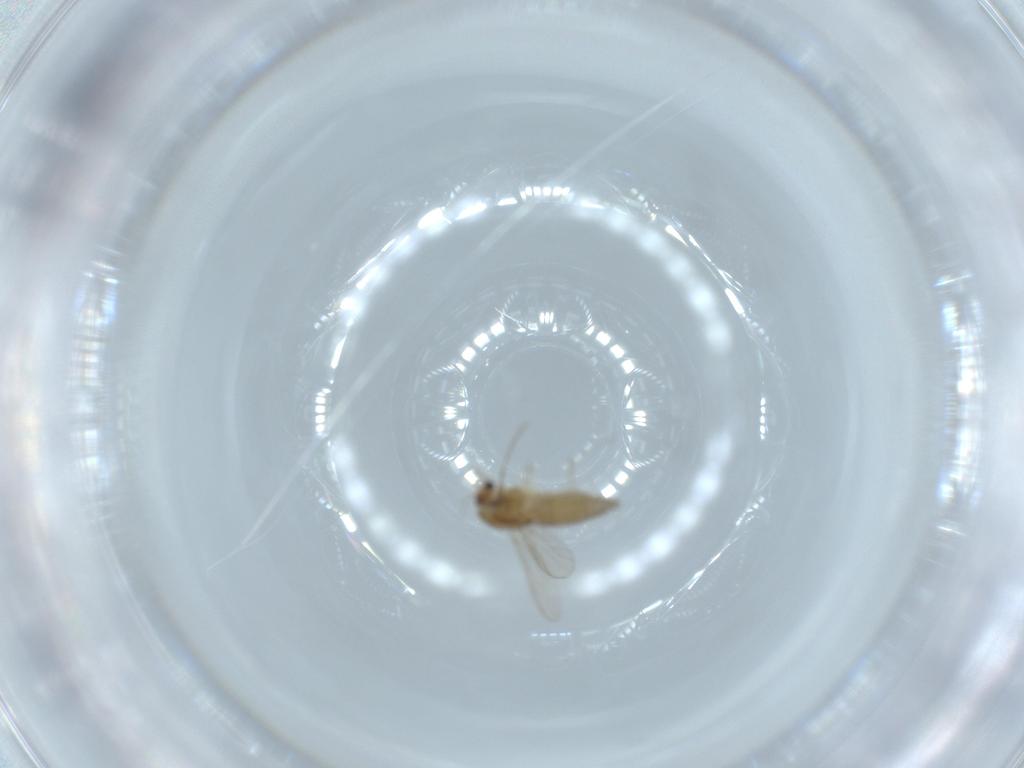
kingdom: Animalia
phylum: Arthropoda
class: Insecta
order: Diptera
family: Chironomidae
